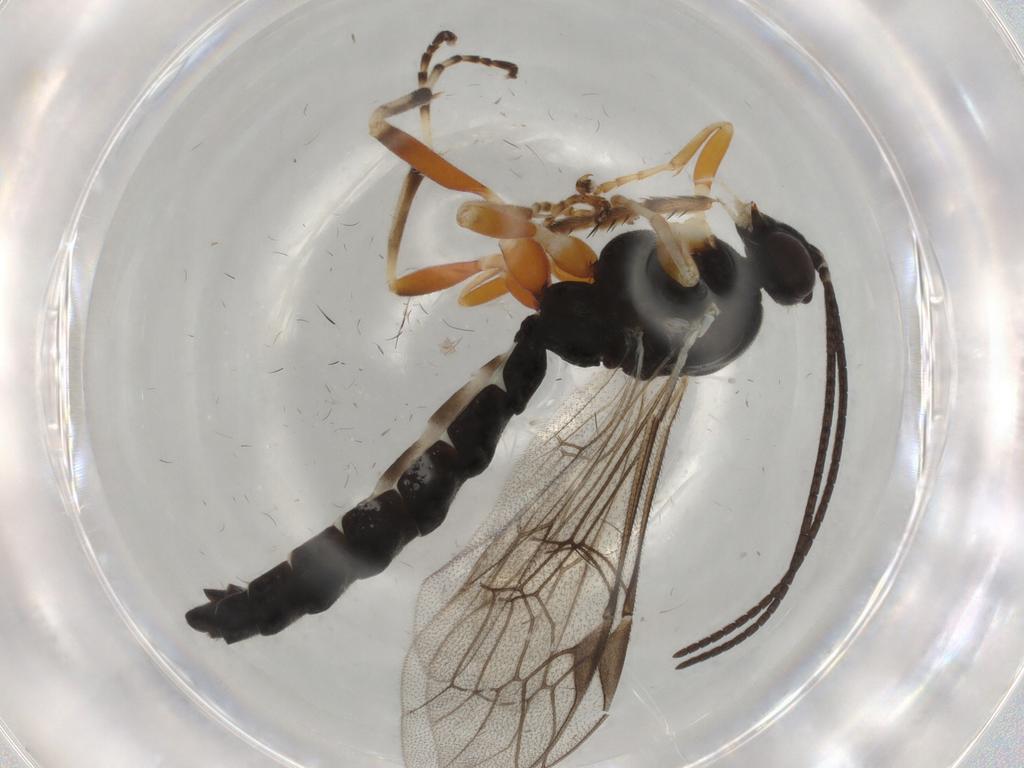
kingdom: Animalia
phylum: Arthropoda
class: Insecta
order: Hymenoptera
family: Ichneumonidae
